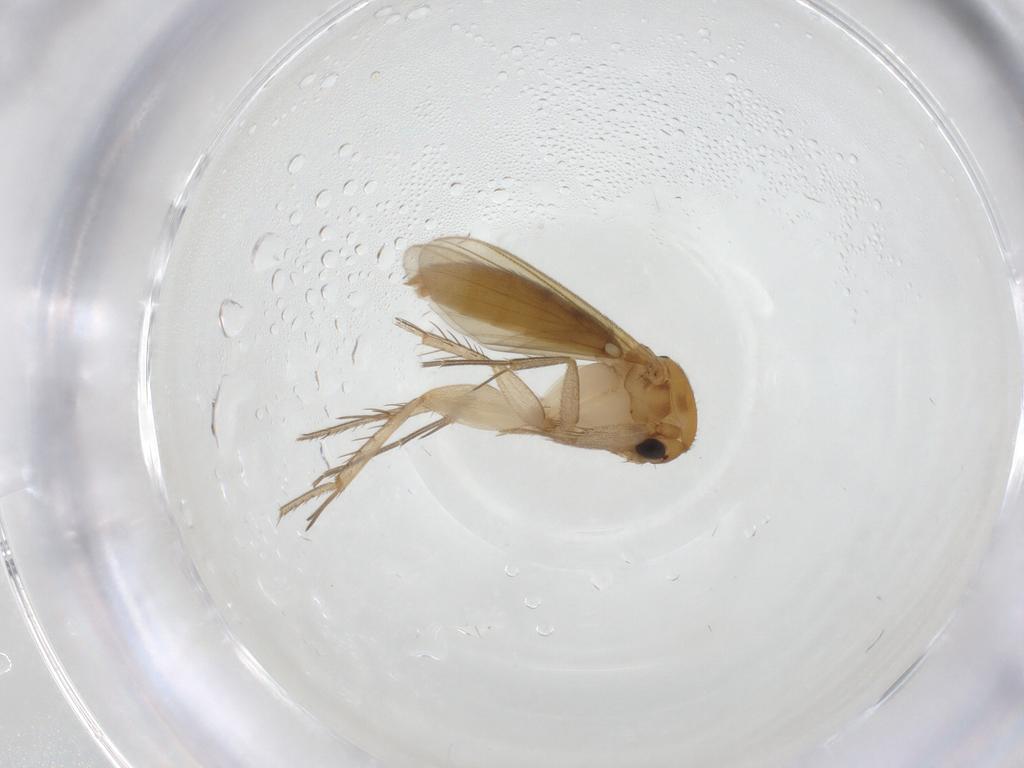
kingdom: Animalia
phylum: Arthropoda
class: Insecta
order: Diptera
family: Mycetophilidae
